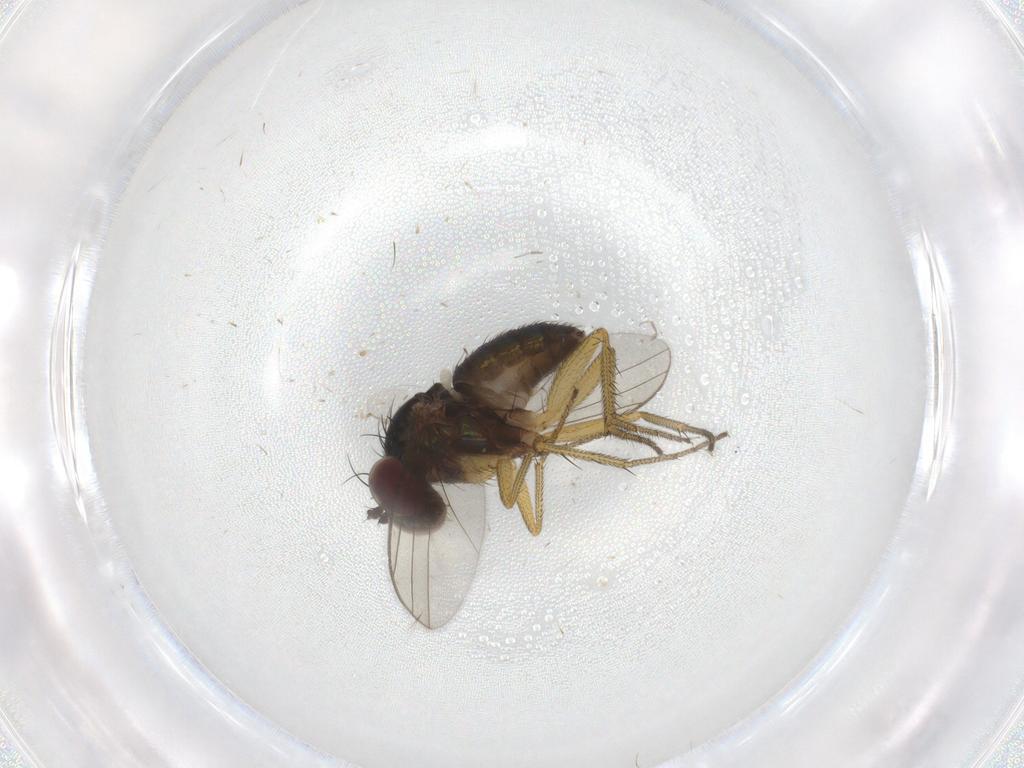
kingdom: Animalia
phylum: Arthropoda
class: Insecta
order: Diptera
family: Dolichopodidae
